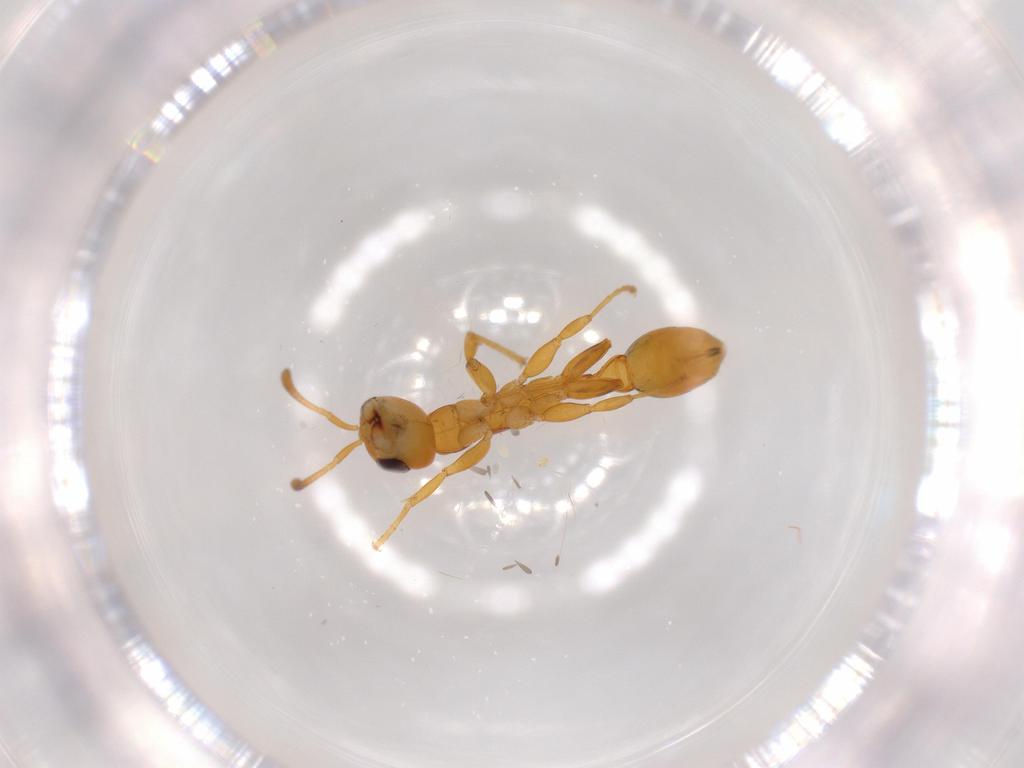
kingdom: Animalia
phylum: Arthropoda
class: Insecta
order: Hymenoptera
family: Formicidae
